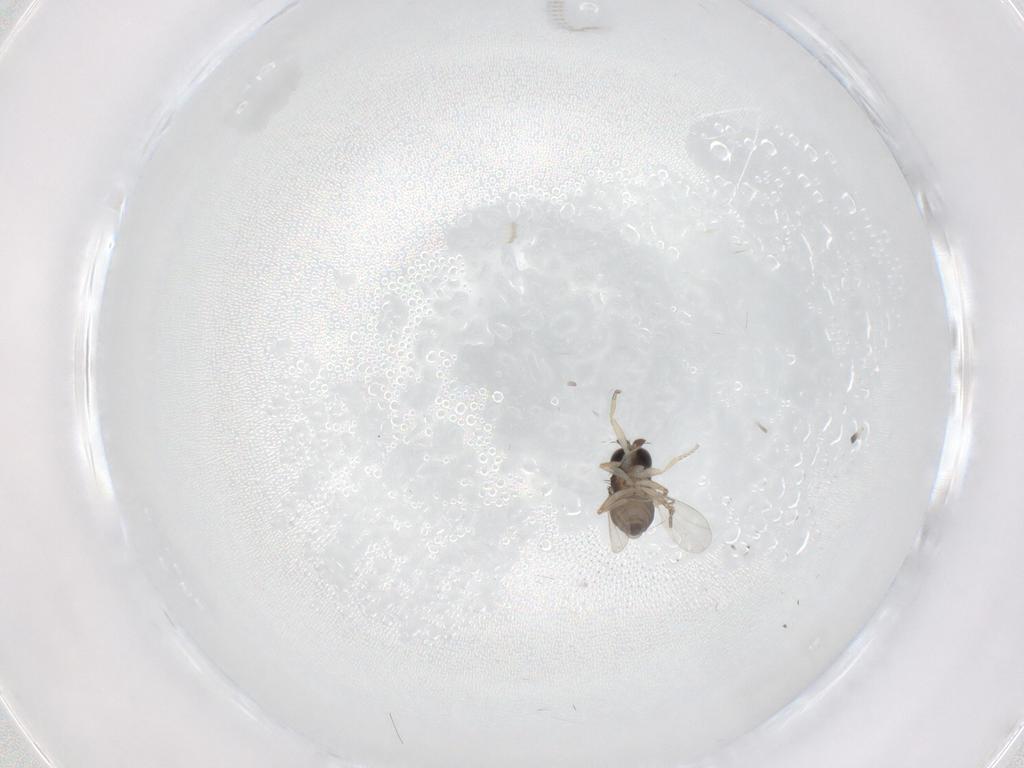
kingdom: Animalia
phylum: Arthropoda
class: Insecta
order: Diptera
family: Phoridae
